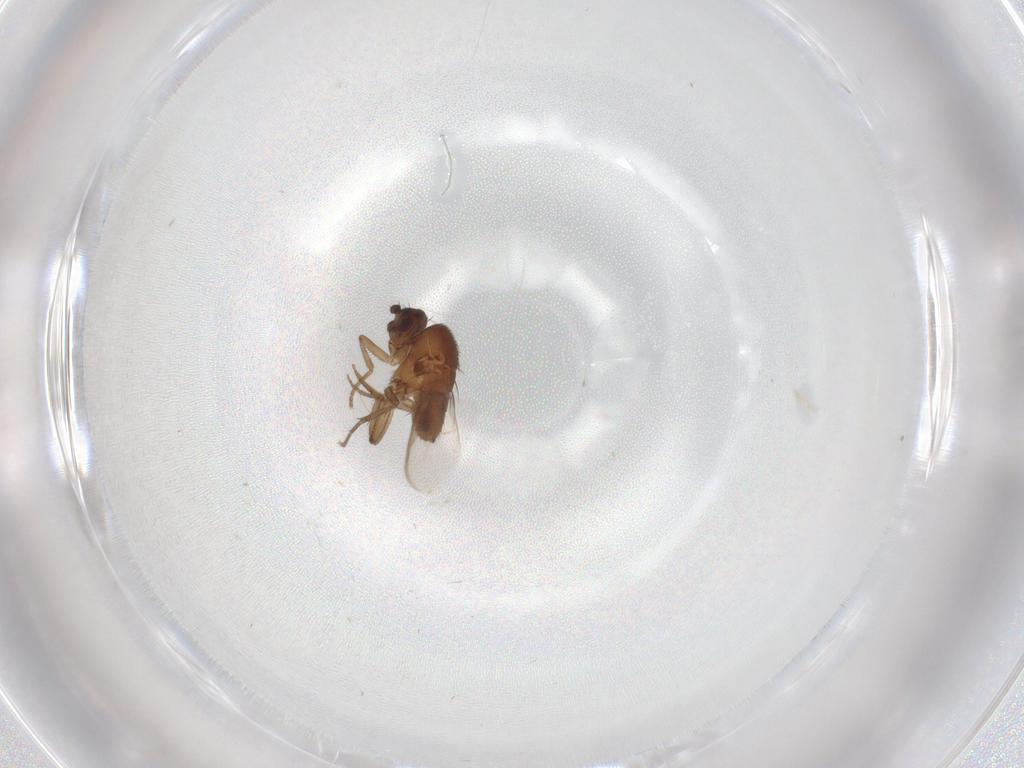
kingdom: Animalia
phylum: Arthropoda
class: Insecta
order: Diptera
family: Sphaeroceridae
